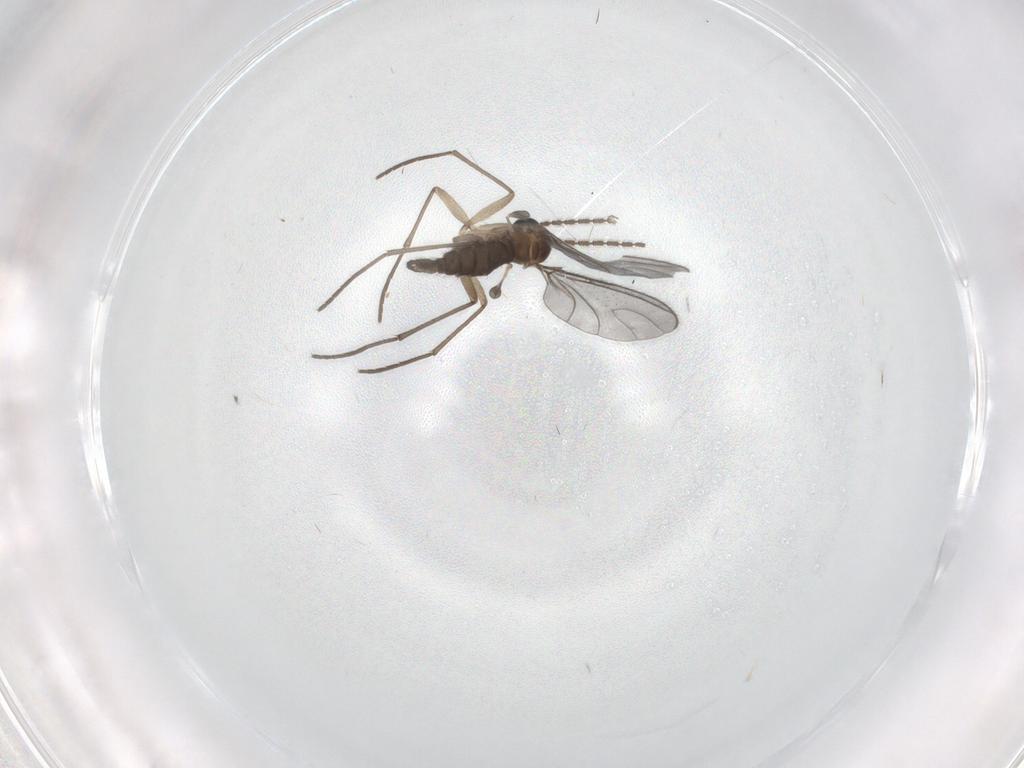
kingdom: Animalia
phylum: Arthropoda
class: Insecta
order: Diptera
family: Sciaridae
